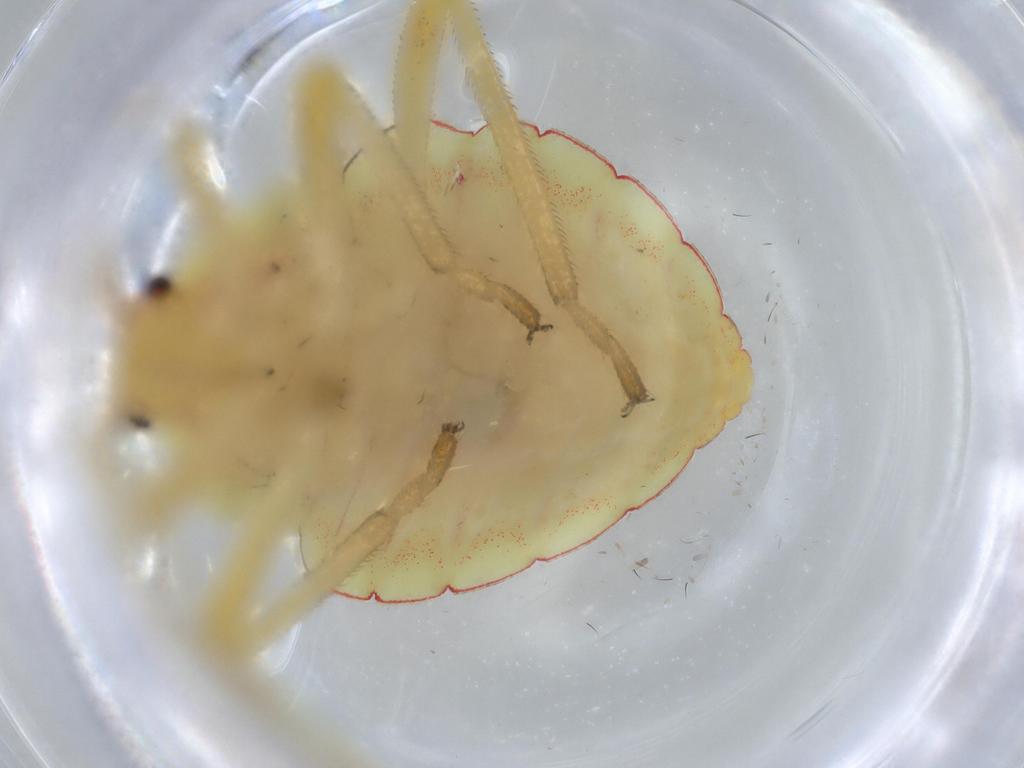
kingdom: Animalia
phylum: Arthropoda
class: Insecta
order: Hemiptera
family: Coreidae
